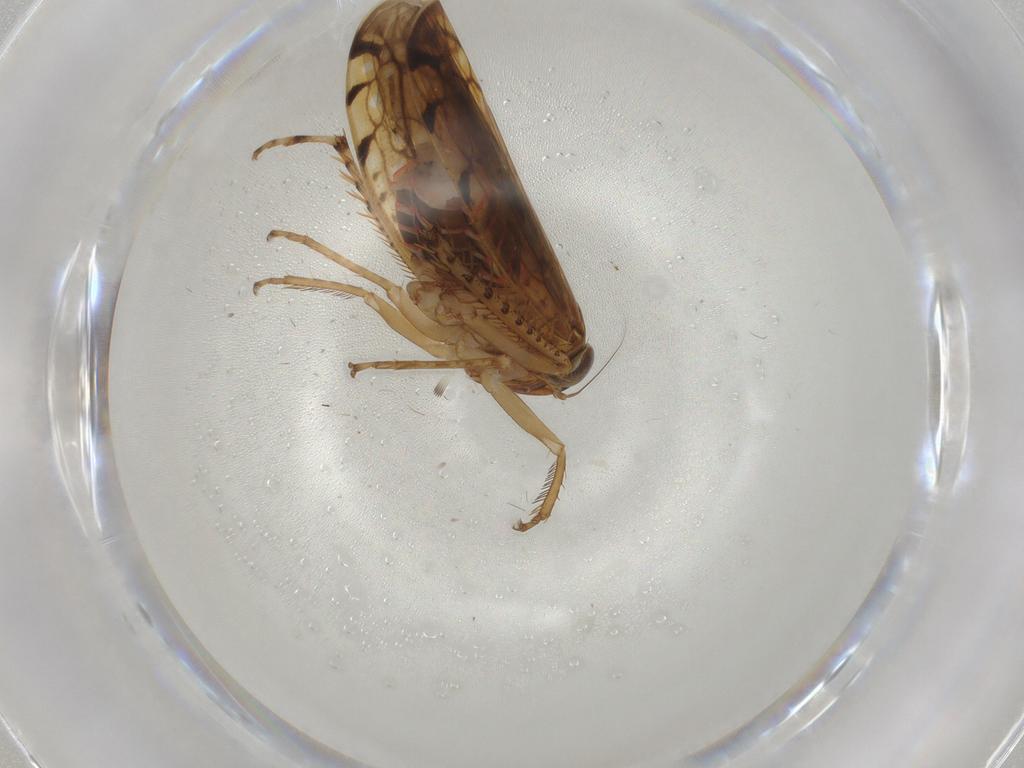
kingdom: Animalia
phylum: Arthropoda
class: Insecta
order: Hemiptera
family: Cicadellidae
